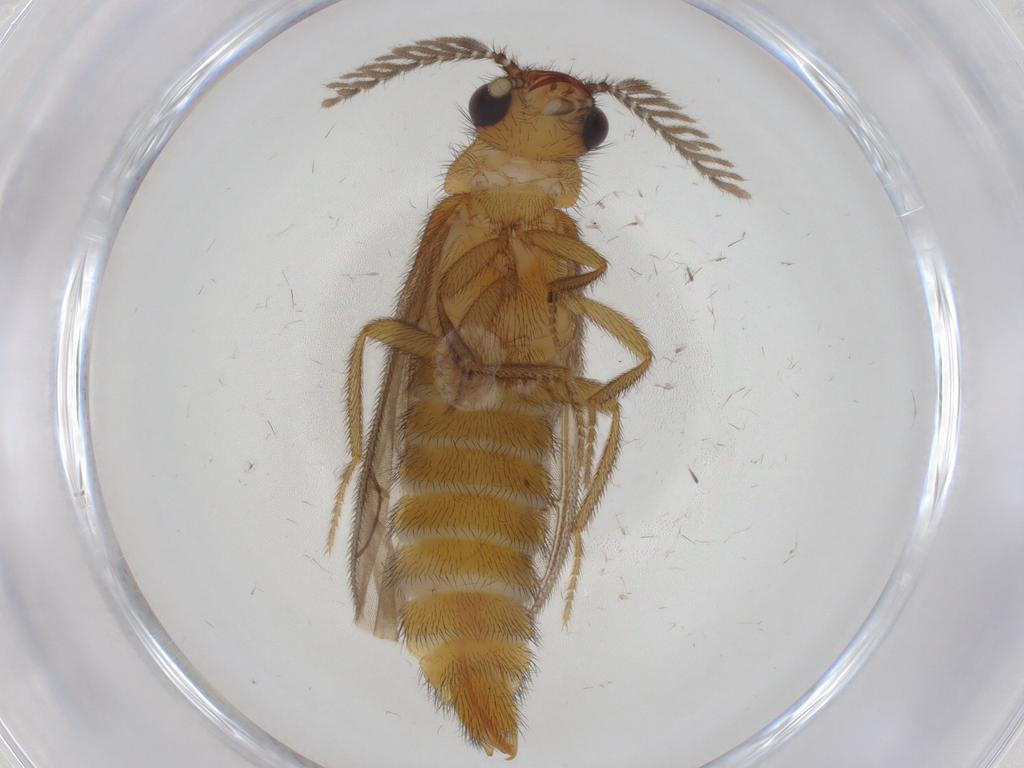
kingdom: Animalia
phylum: Arthropoda
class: Insecta
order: Coleoptera
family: Phengodidae
